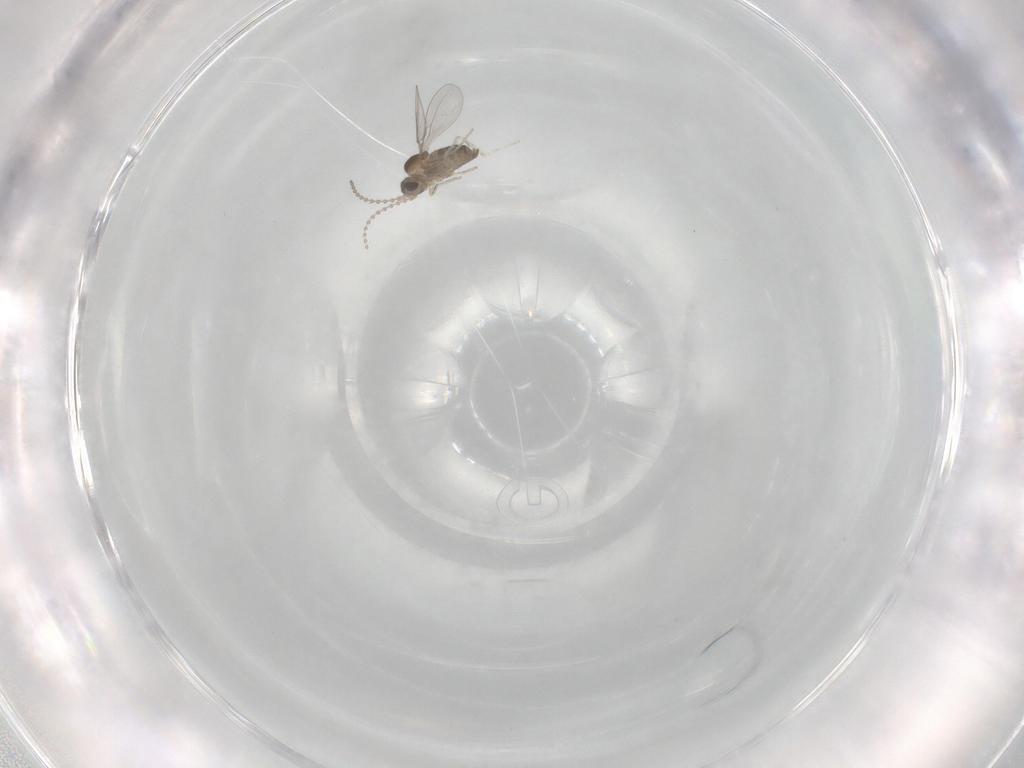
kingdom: Animalia
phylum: Arthropoda
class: Insecta
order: Diptera
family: Cecidomyiidae
